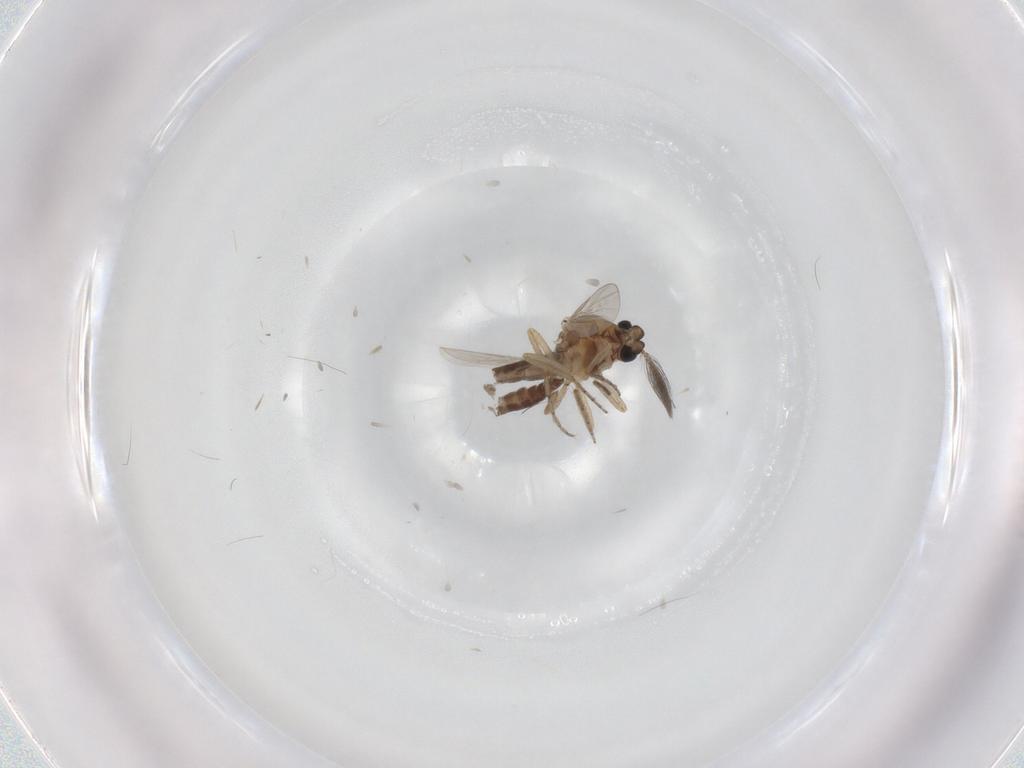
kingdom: Animalia
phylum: Arthropoda
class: Insecta
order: Diptera
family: Ceratopogonidae
